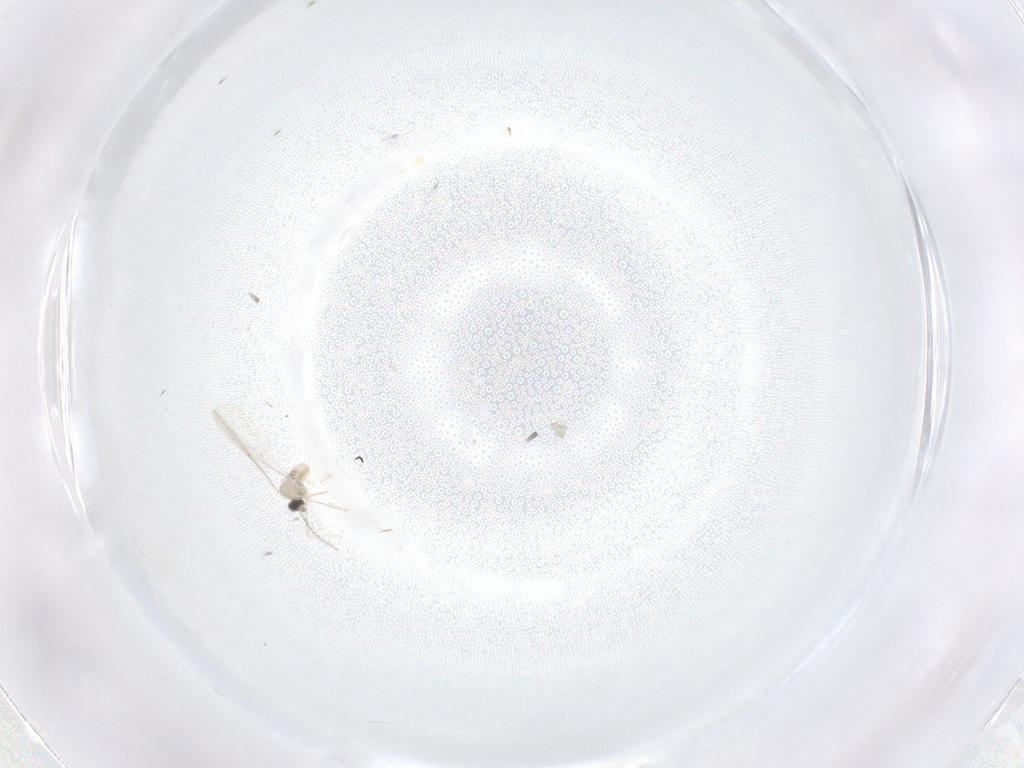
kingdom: Animalia
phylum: Arthropoda
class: Insecta
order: Diptera
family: Cecidomyiidae
